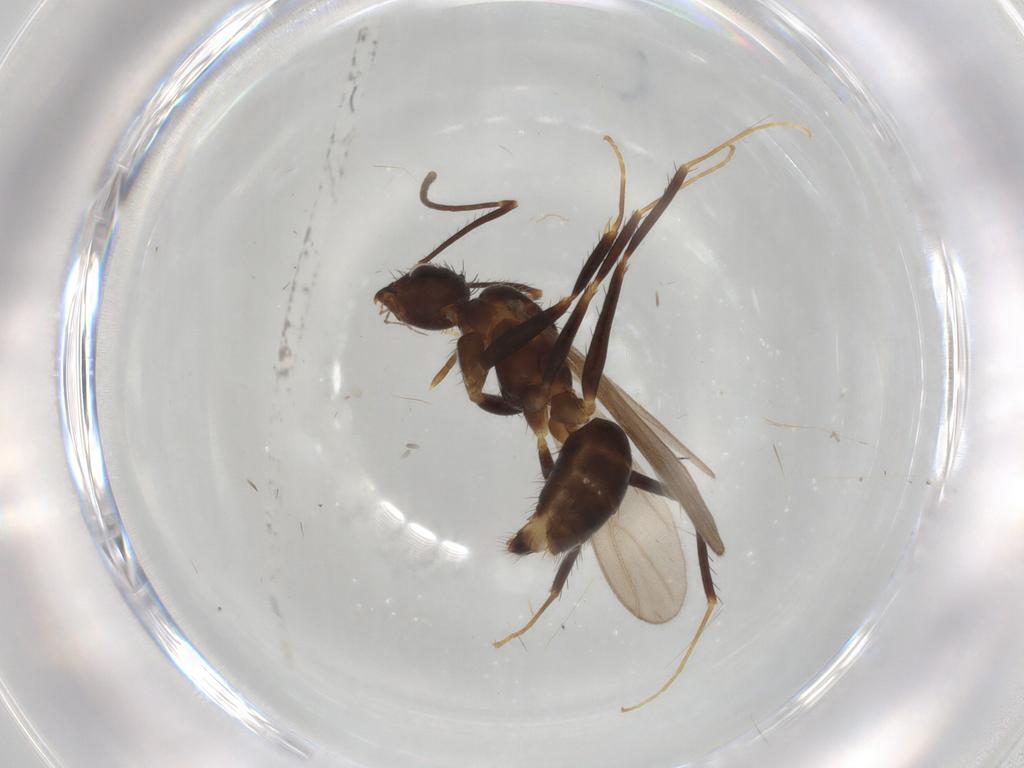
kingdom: Animalia
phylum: Arthropoda
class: Insecta
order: Hymenoptera
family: Formicidae
